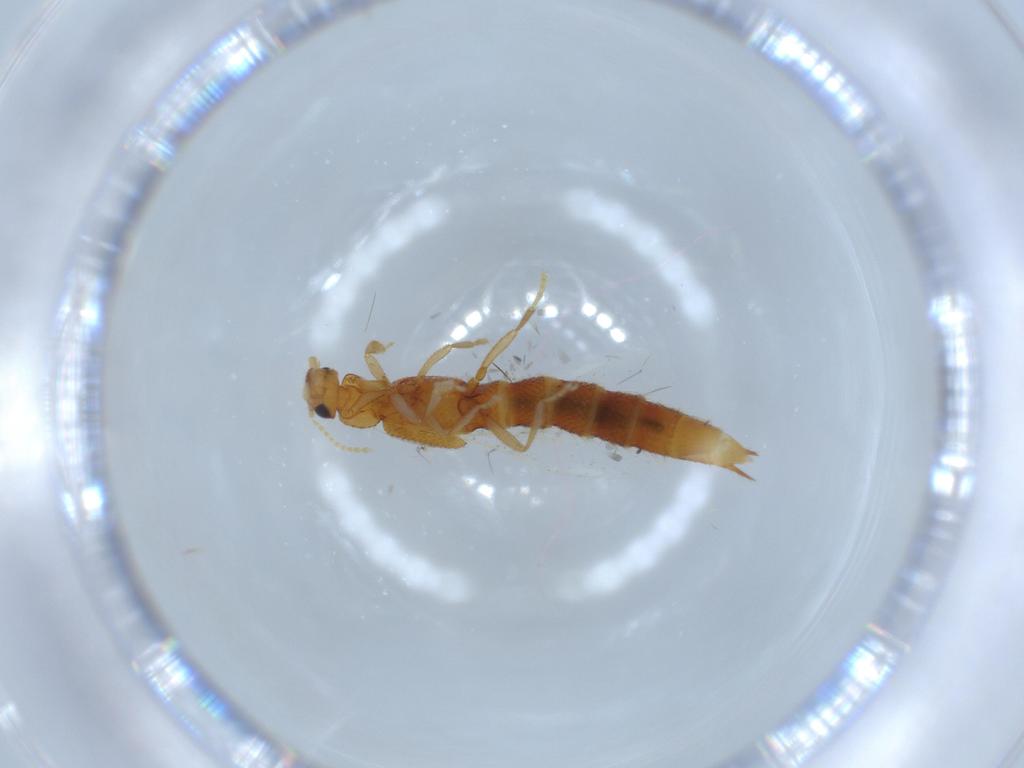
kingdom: Animalia
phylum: Arthropoda
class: Insecta
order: Coleoptera
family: Staphylinidae
